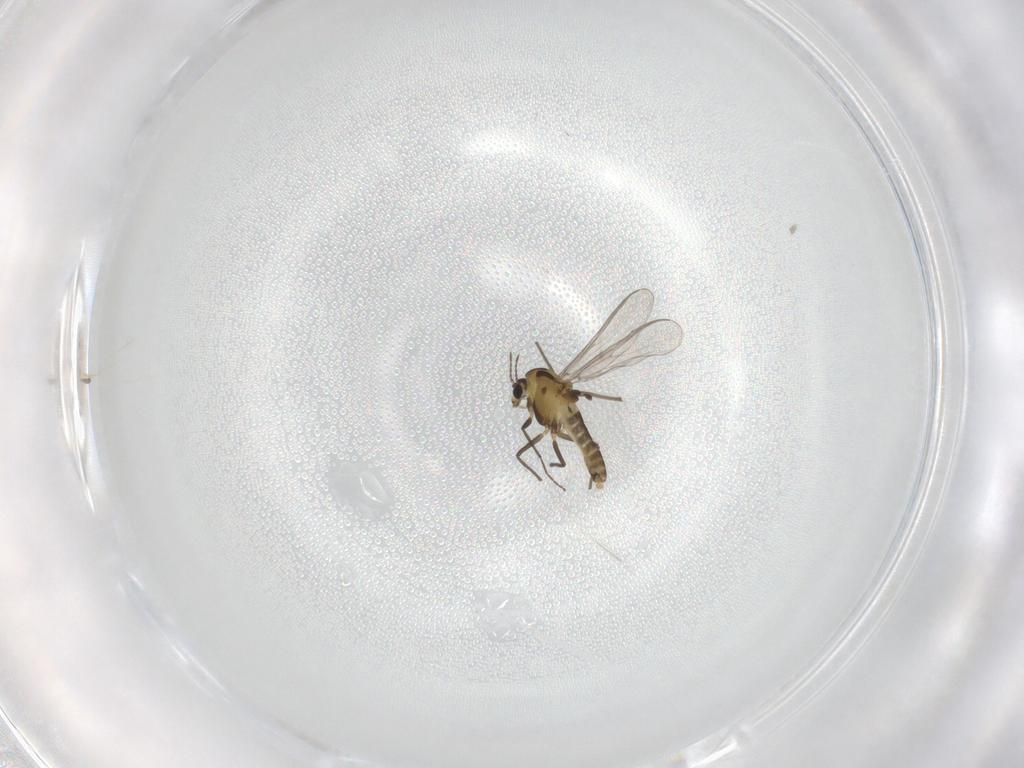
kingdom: Animalia
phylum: Arthropoda
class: Insecta
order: Diptera
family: Chironomidae
